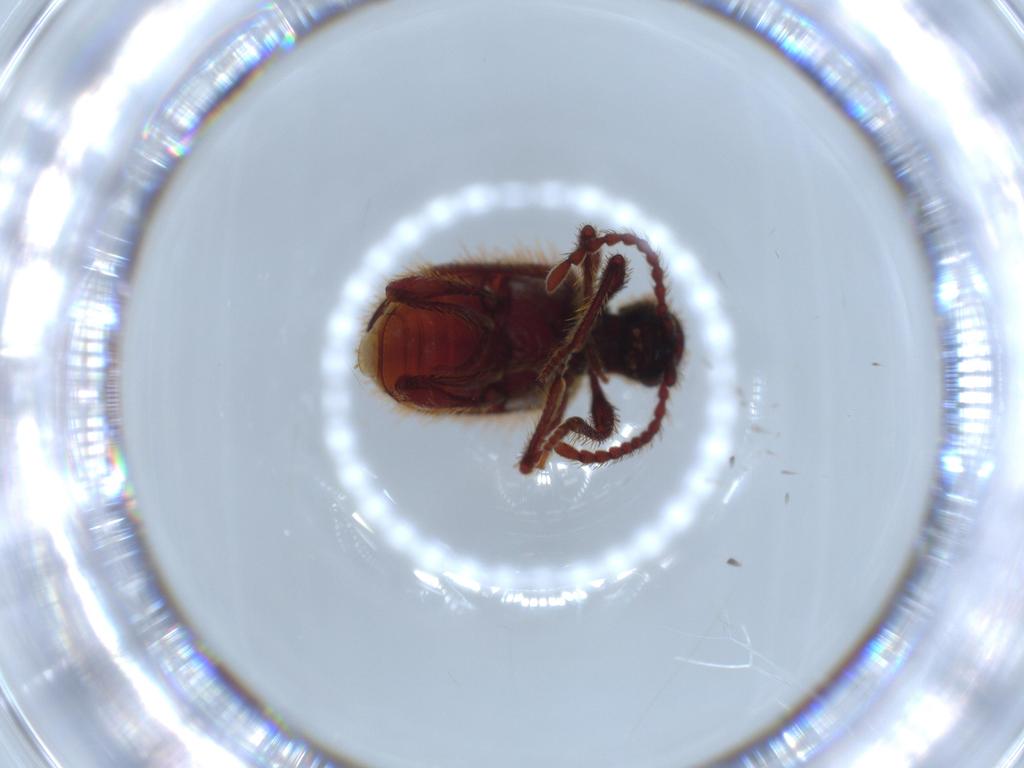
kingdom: Animalia
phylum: Arthropoda
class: Insecta
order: Coleoptera
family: Ptinidae
